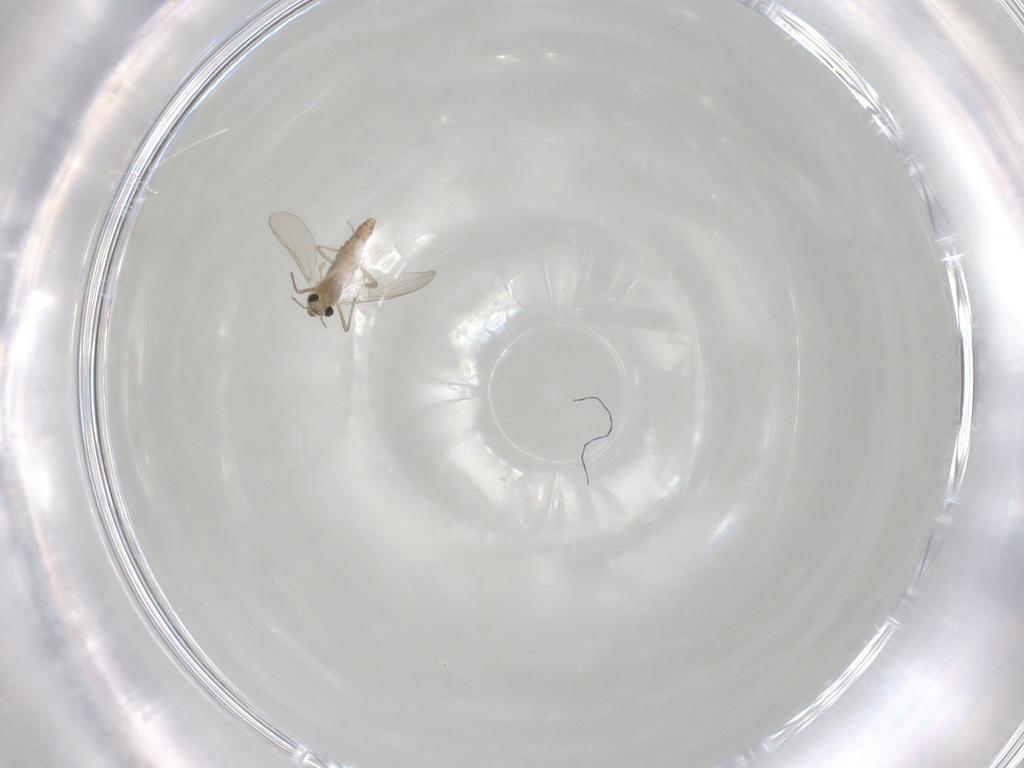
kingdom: Animalia
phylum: Arthropoda
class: Insecta
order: Diptera
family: Chironomidae
